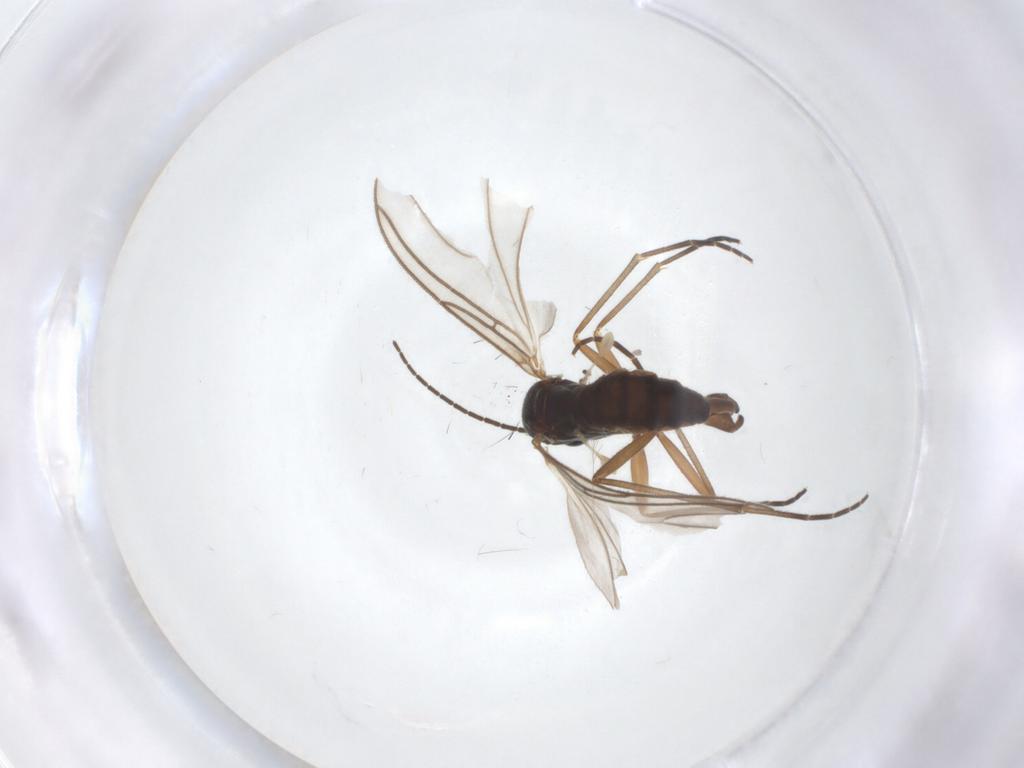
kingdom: Animalia
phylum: Arthropoda
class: Insecta
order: Diptera
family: Sciaridae
